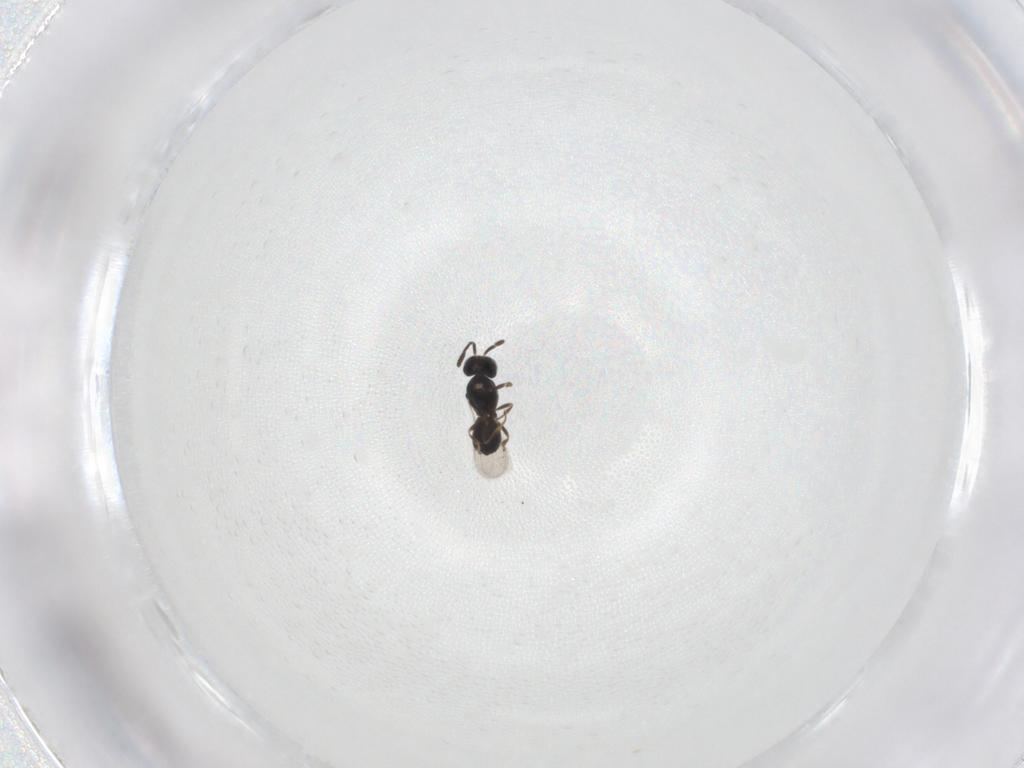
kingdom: Animalia
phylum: Arthropoda
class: Insecta
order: Hymenoptera
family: Scelionidae
